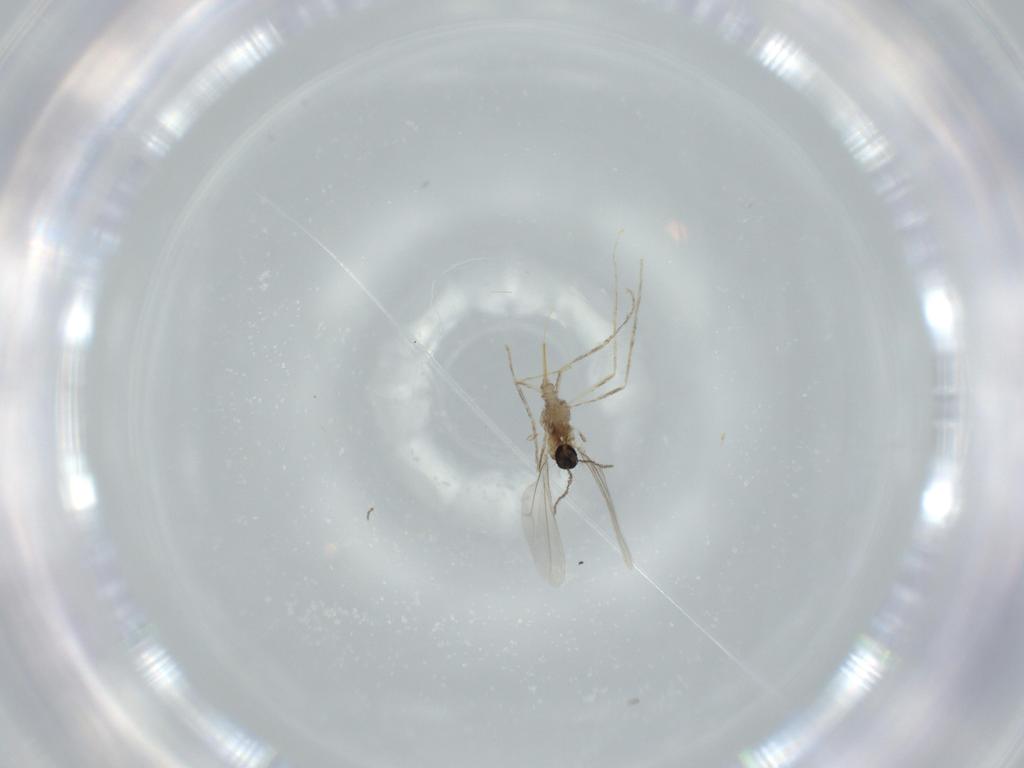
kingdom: Animalia
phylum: Arthropoda
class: Insecta
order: Diptera
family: Cecidomyiidae
